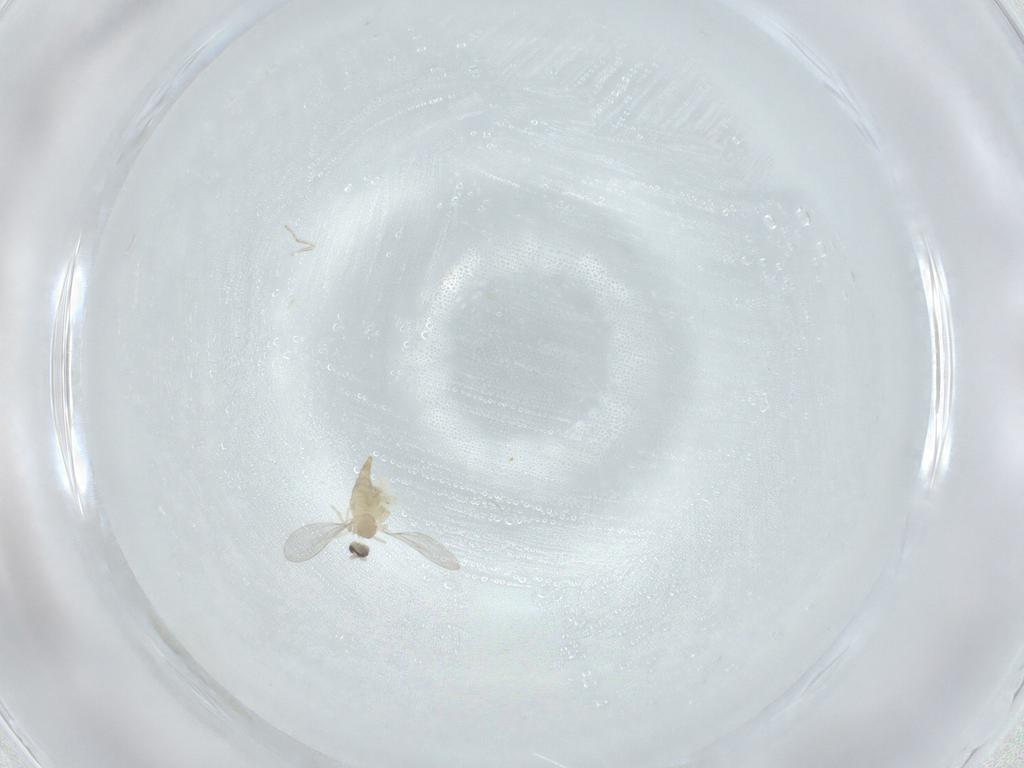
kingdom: Animalia
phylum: Arthropoda
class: Insecta
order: Diptera
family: Cecidomyiidae
